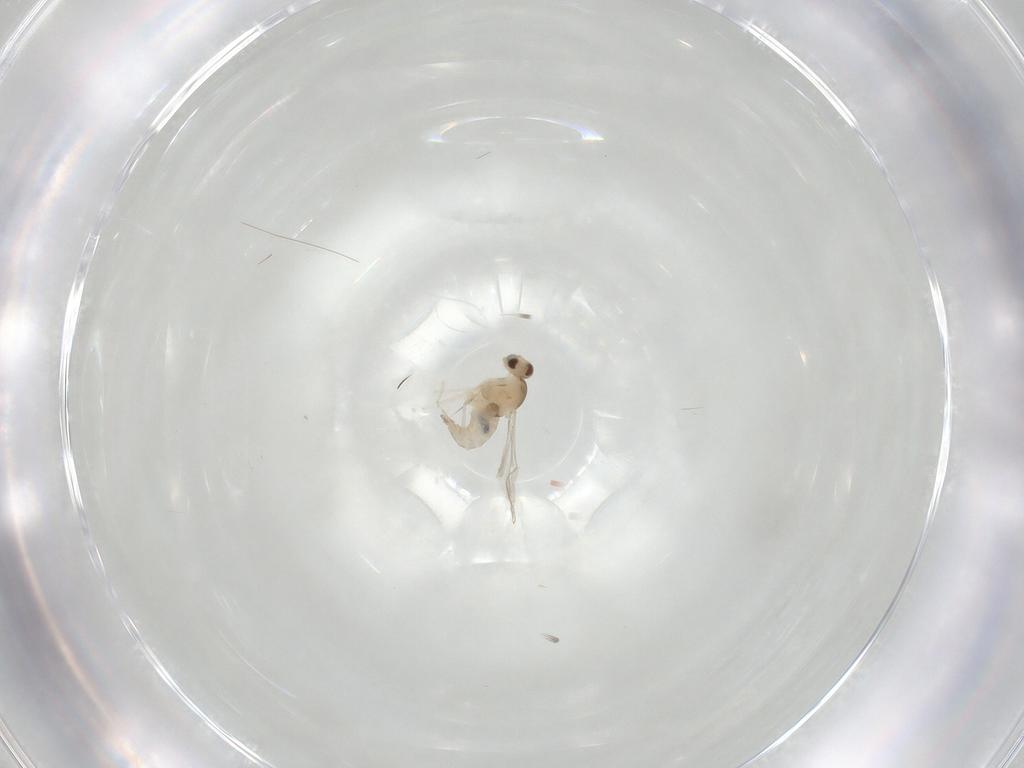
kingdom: Animalia
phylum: Arthropoda
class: Insecta
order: Diptera
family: Cecidomyiidae
